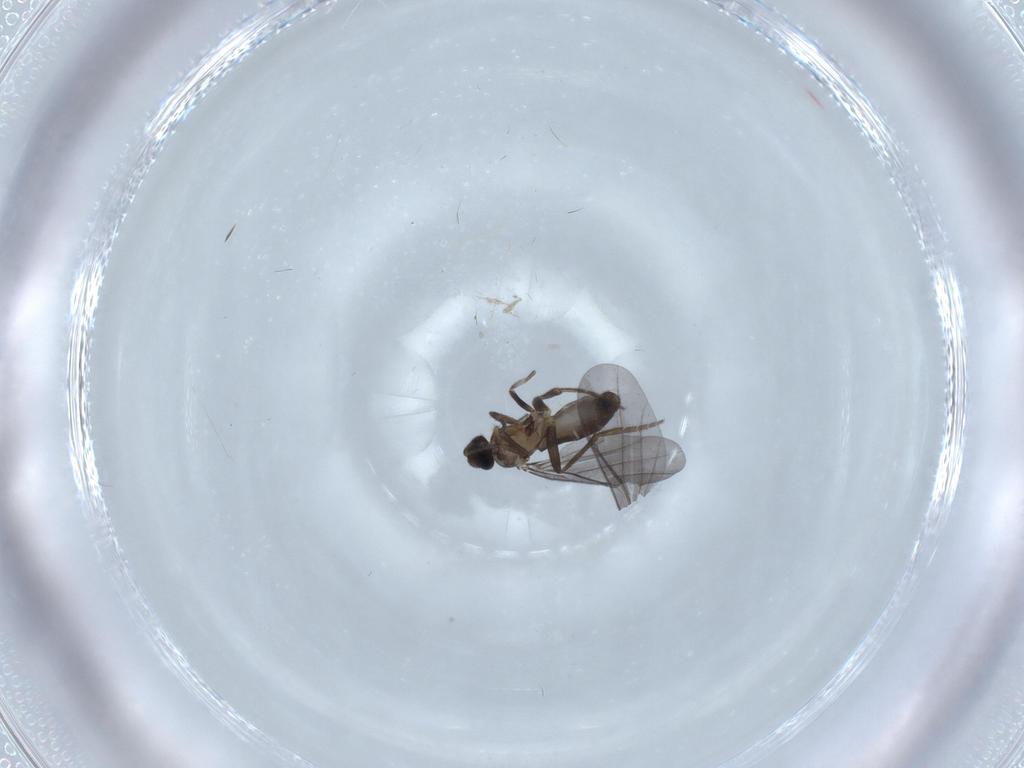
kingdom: Animalia
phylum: Arthropoda
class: Insecta
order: Diptera
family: Phoridae
